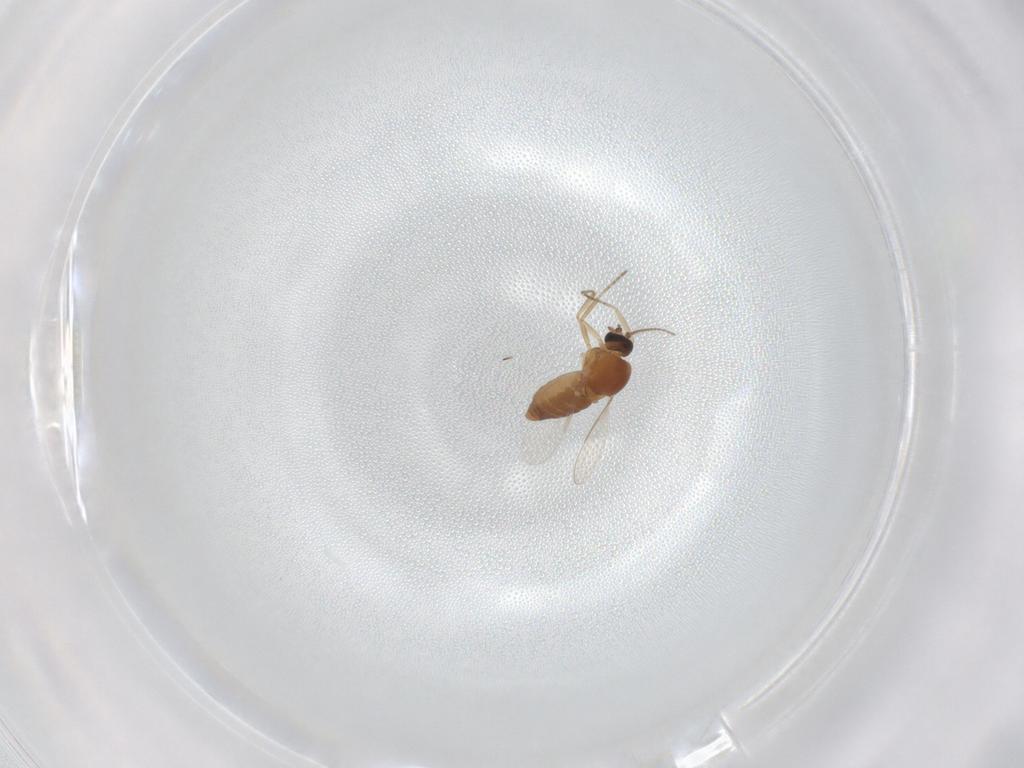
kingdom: Animalia
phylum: Arthropoda
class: Insecta
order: Diptera
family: Ceratopogonidae
